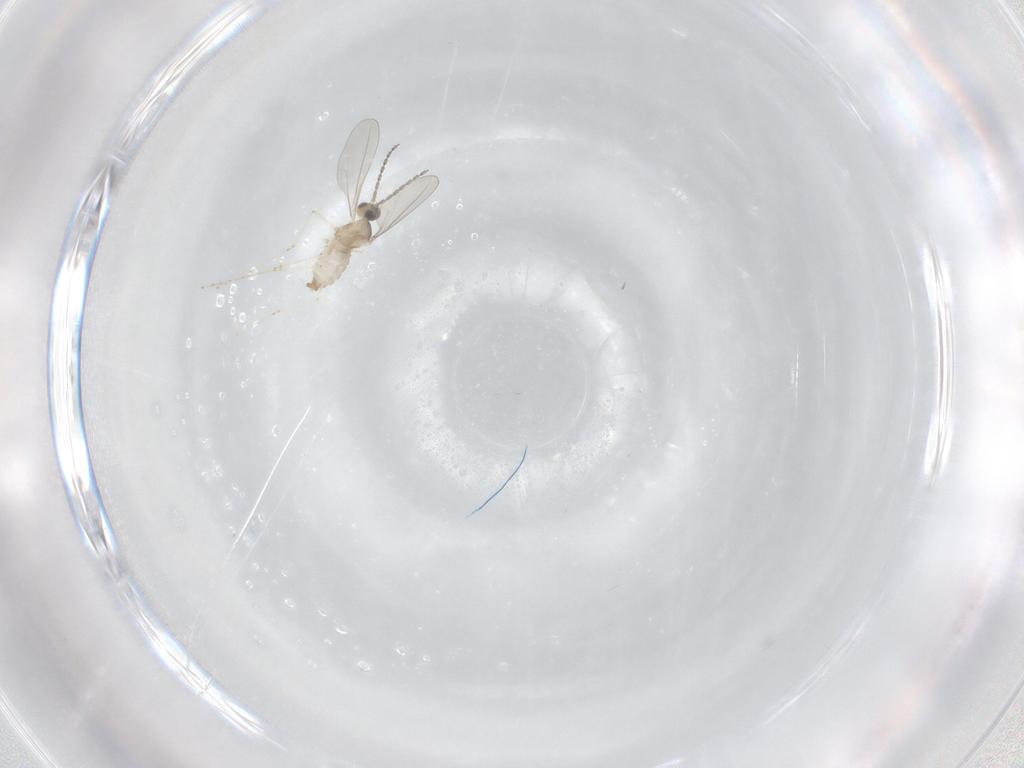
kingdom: Animalia
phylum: Arthropoda
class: Insecta
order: Diptera
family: Cecidomyiidae
